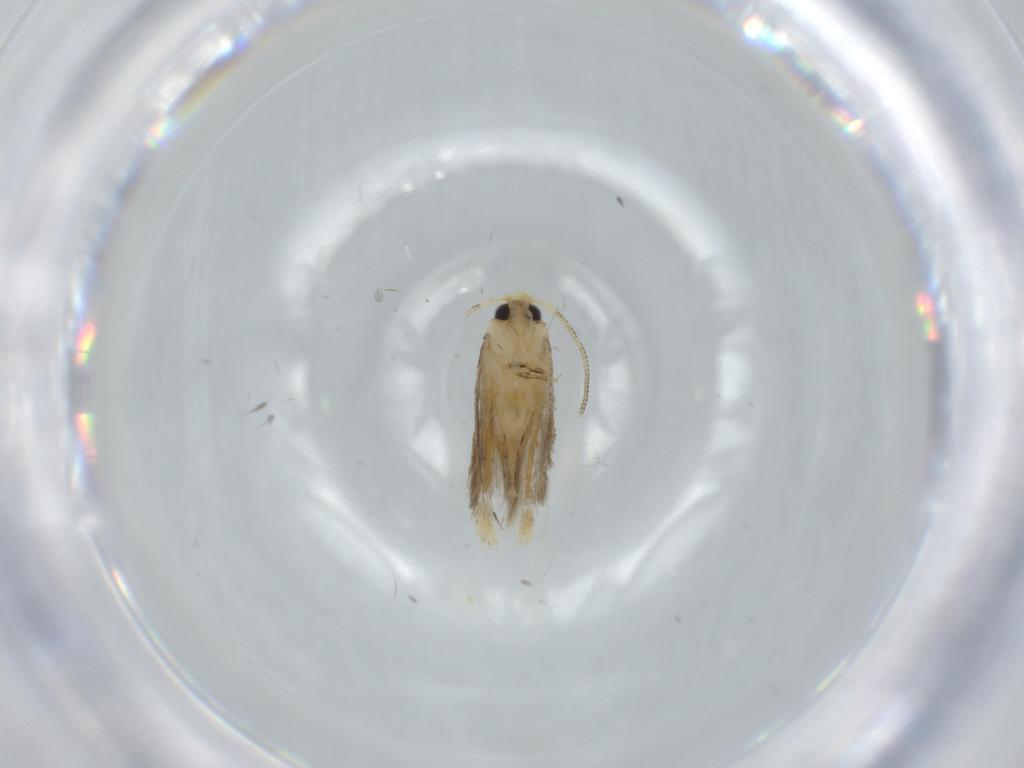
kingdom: Animalia
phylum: Arthropoda
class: Insecta
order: Lepidoptera
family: Nepticulidae
